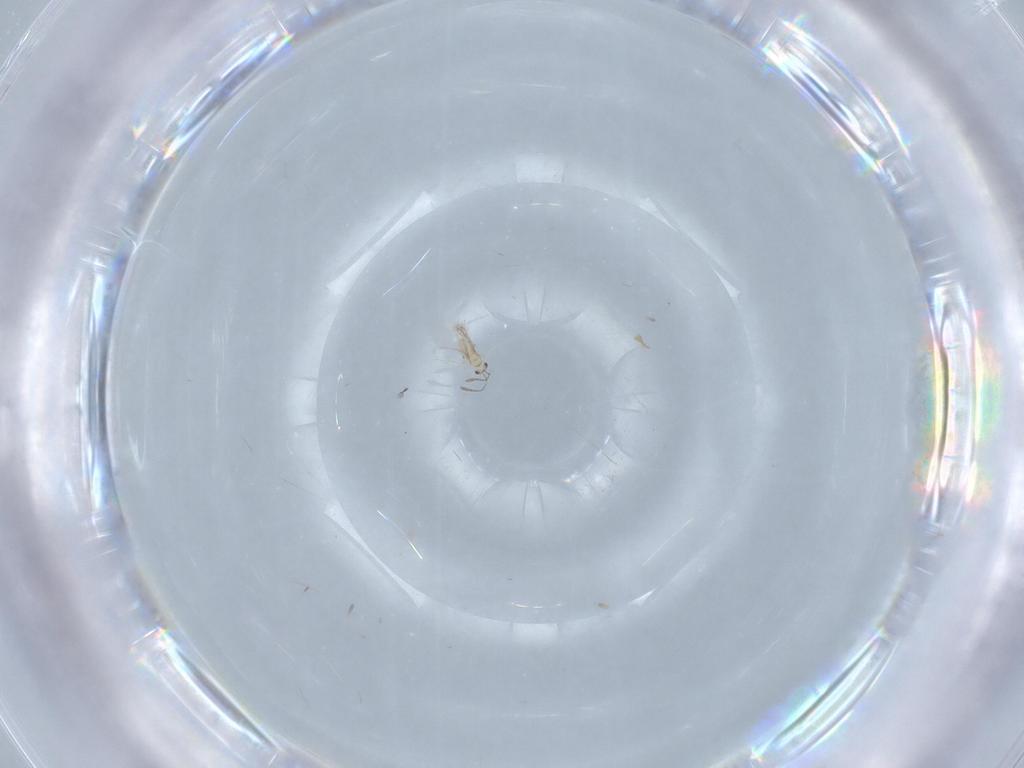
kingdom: Animalia
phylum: Arthropoda
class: Insecta
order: Hymenoptera
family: Mymaridae
